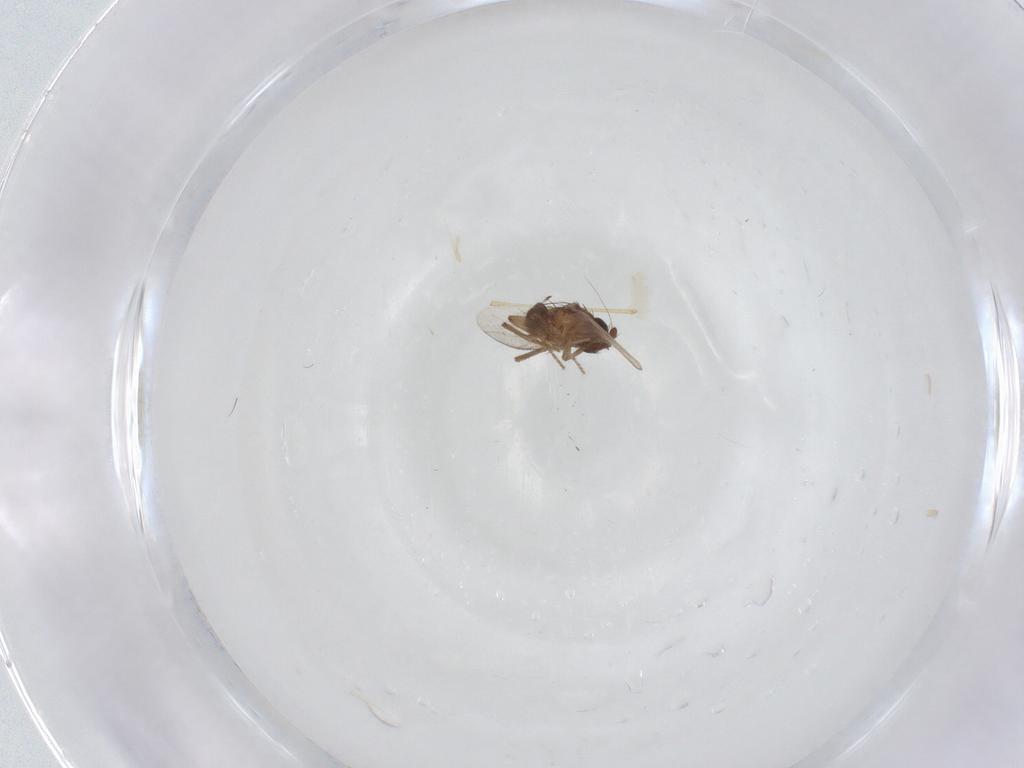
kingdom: Animalia
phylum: Arthropoda
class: Insecta
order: Diptera
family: Sphaeroceridae
